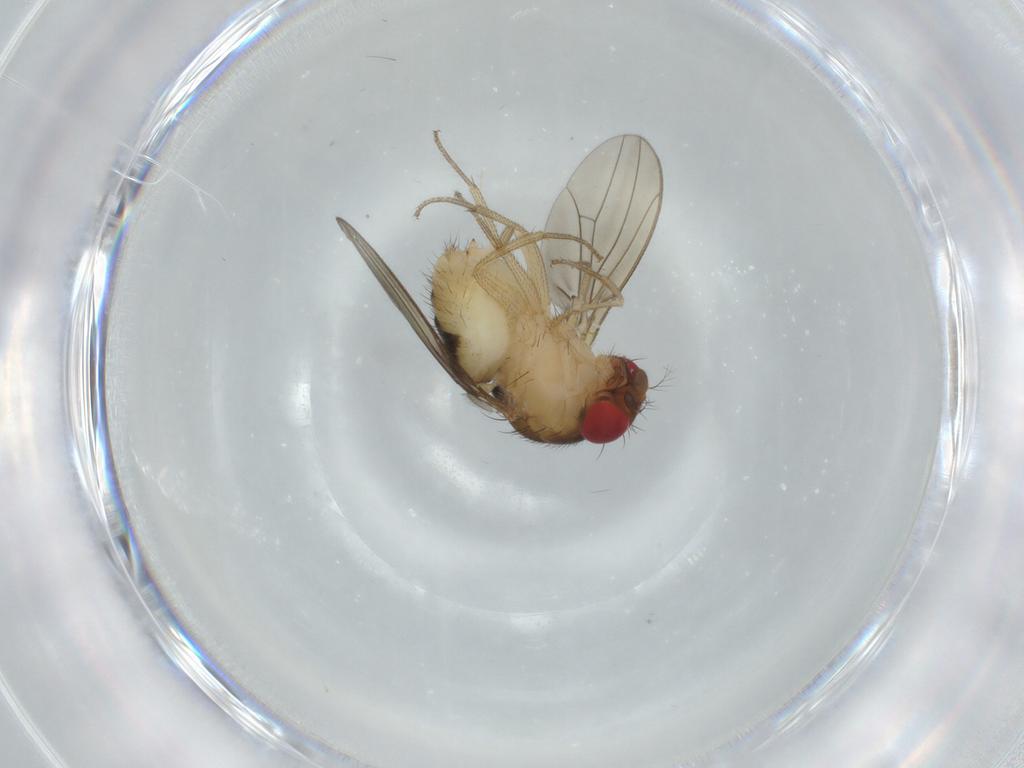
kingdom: Animalia
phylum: Arthropoda
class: Insecta
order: Diptera
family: Drosophilidae
